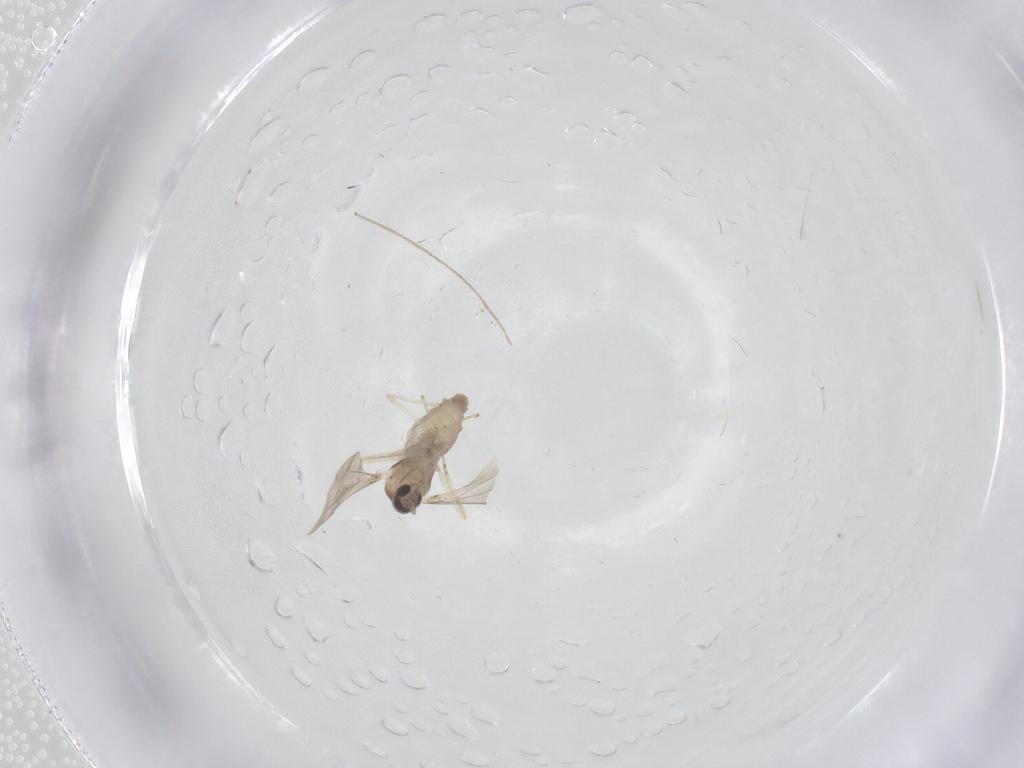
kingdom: Animalia
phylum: Arthropoda
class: Insecta
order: Diptera
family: Cecidomyiidae
